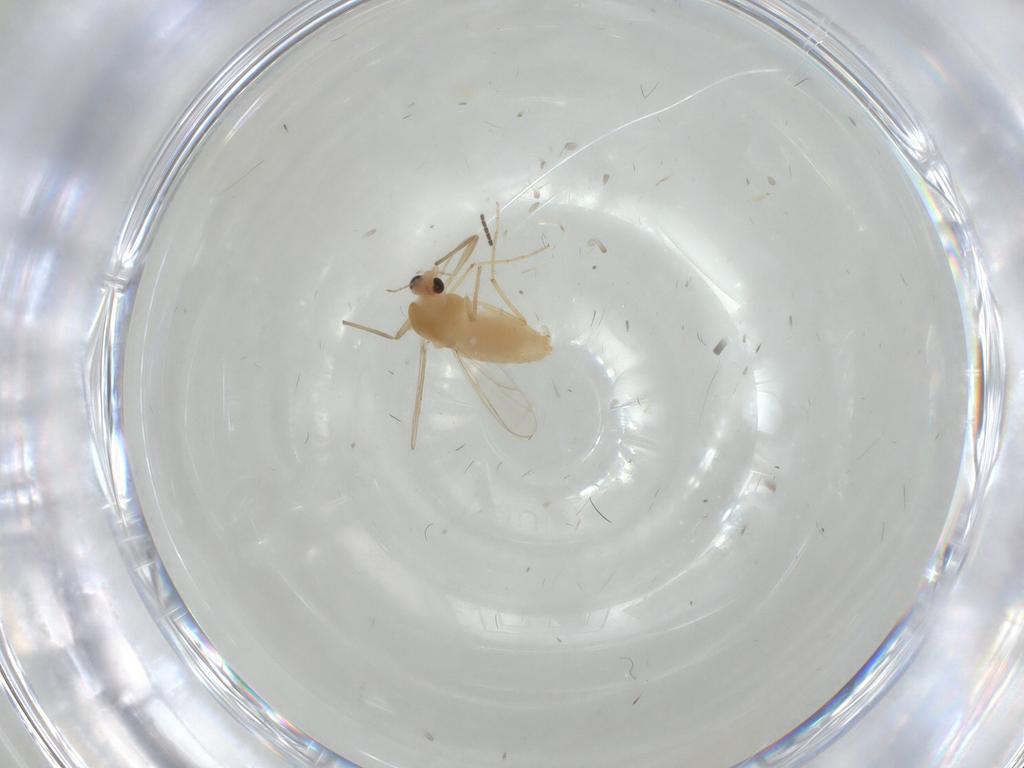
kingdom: Animalia
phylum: Arthropoda
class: Insecta
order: Diptera
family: Chironomidae
